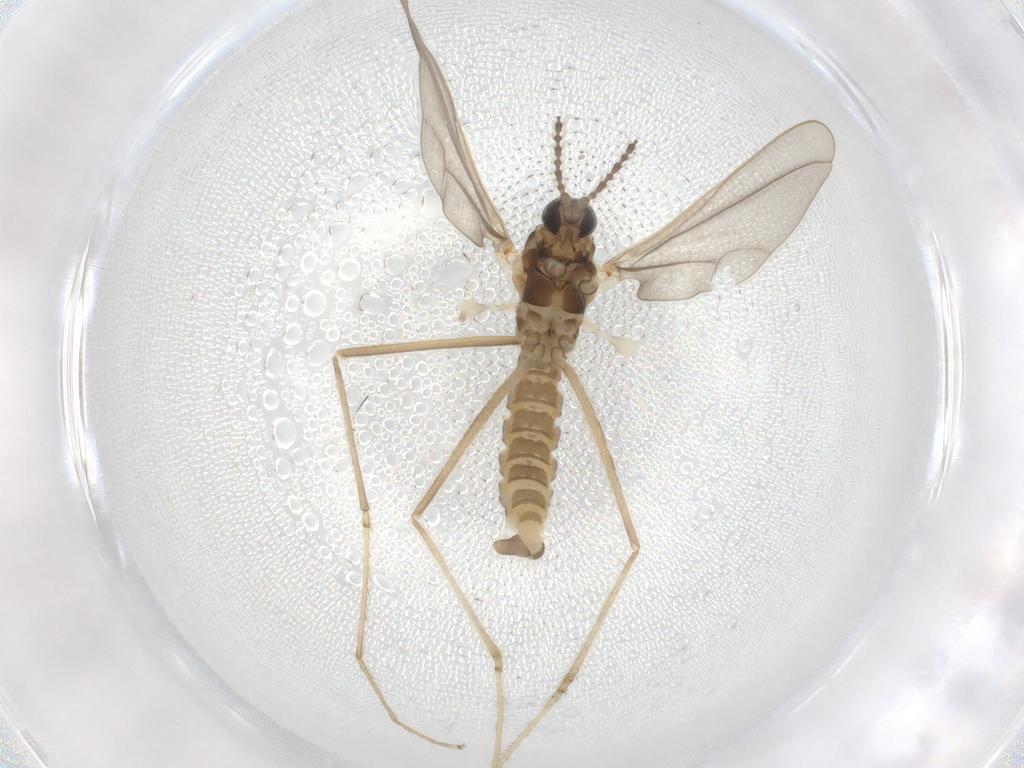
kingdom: Animalia
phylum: Arthropoda
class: Insecta
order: Diptera
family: Cecidomyiidae
